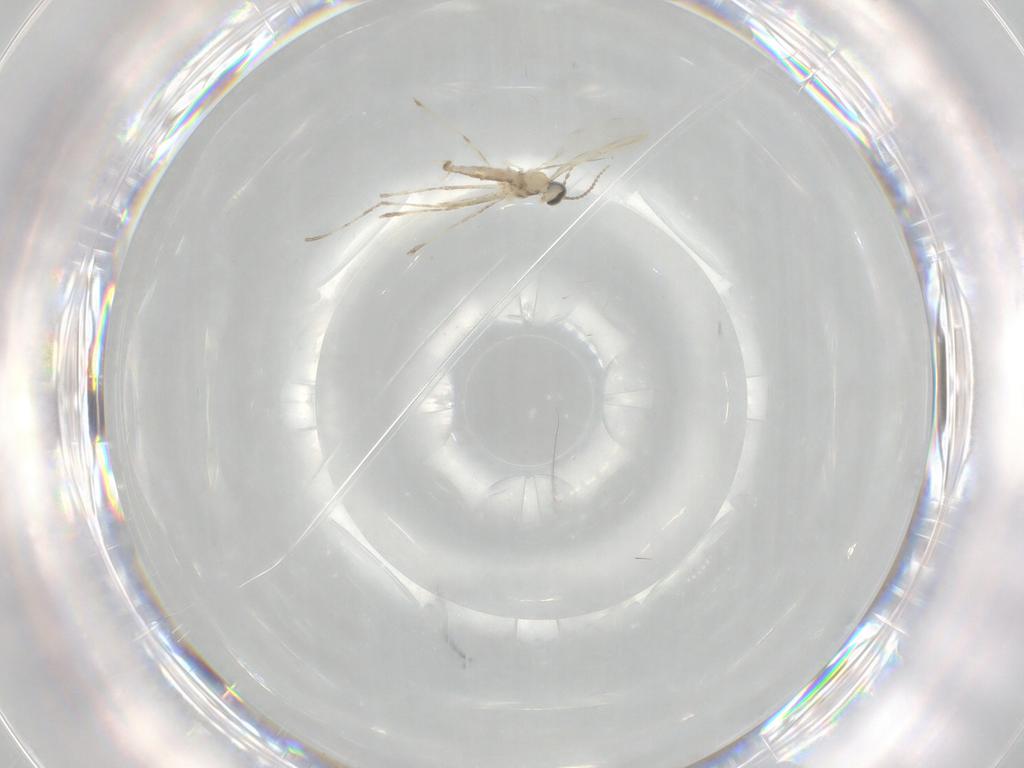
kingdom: Animalia
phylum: Arthropoda
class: Insecta
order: Diptera
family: Cecidomyiidae
